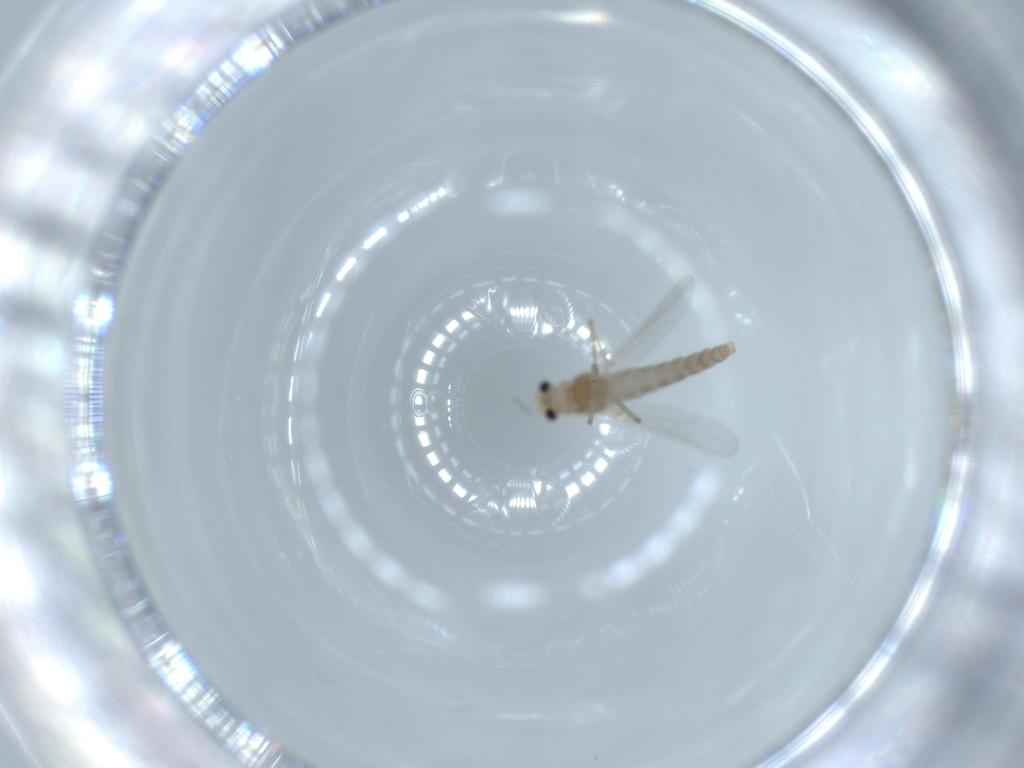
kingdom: Animalia
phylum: Arthropoda
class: Insecta
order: Diptera
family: Chironomidae
